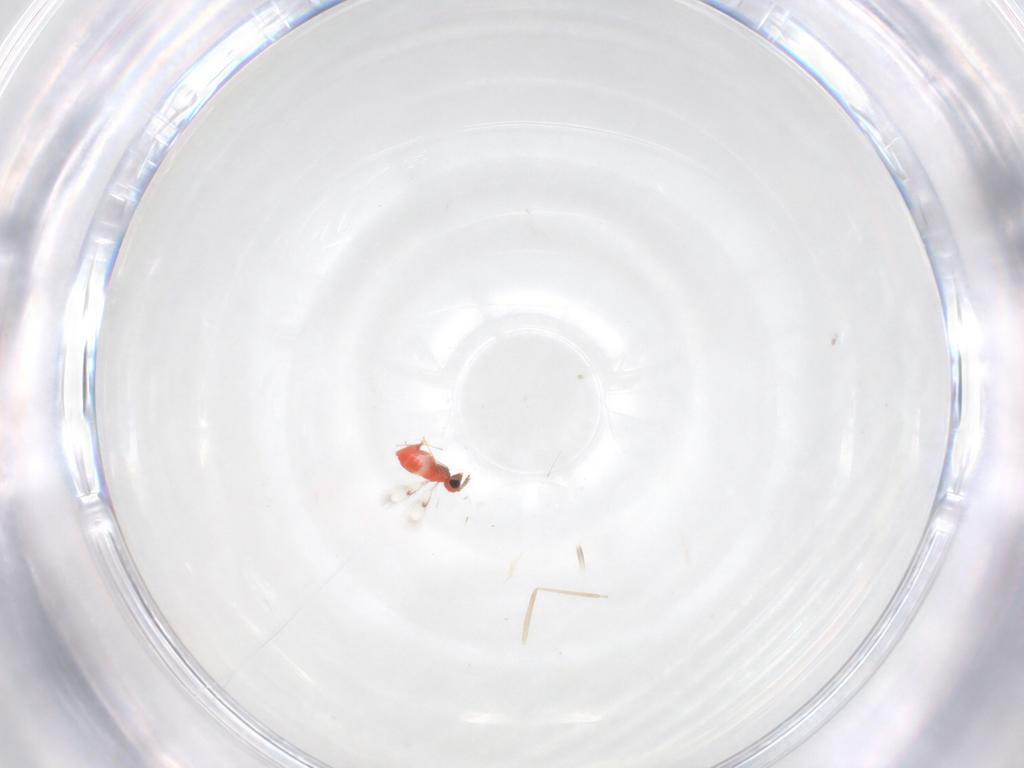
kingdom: Animalia
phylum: Arthropoda
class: Insecta
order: Hymenoptera
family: Trichogrammatidae
